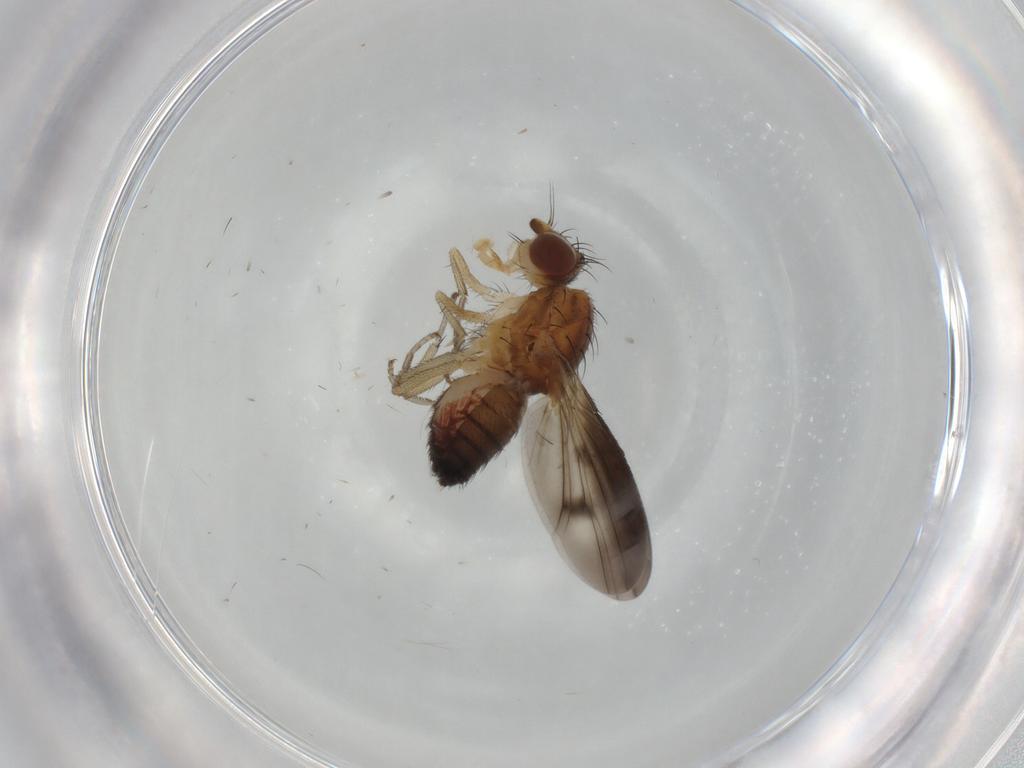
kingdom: Animalia
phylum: Arthropoda
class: Insecta
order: Diptera
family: Heleomyzidae
